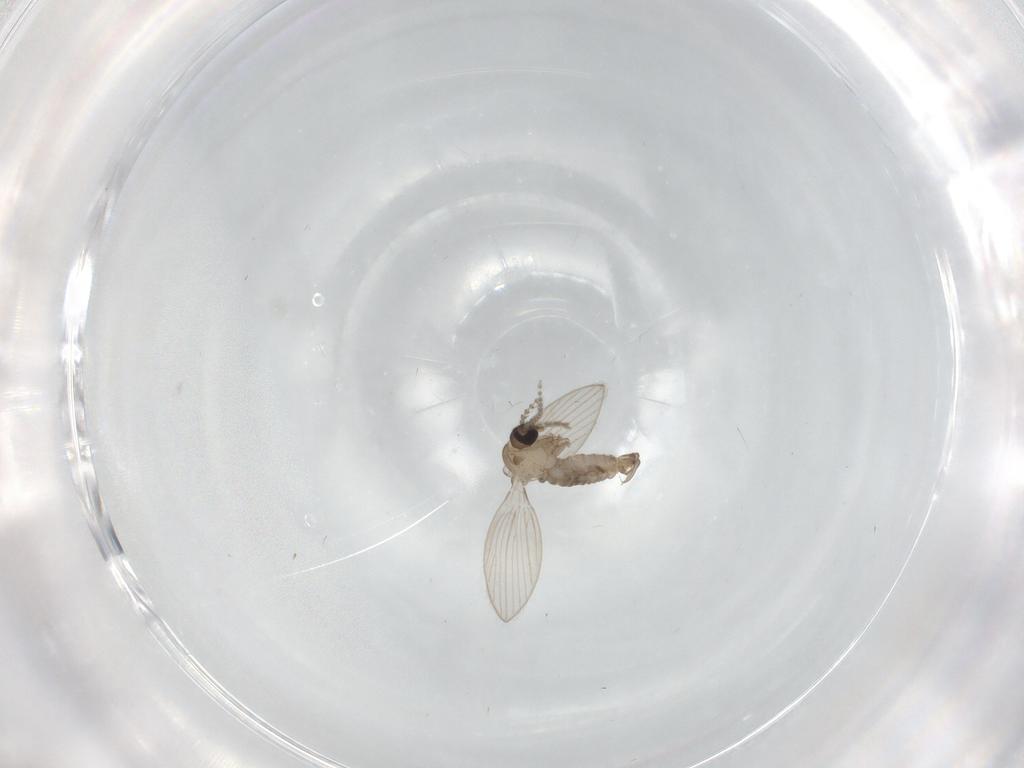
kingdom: Animalia
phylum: Arthropoda
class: Insecta
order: Diptera
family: Psychodidae
